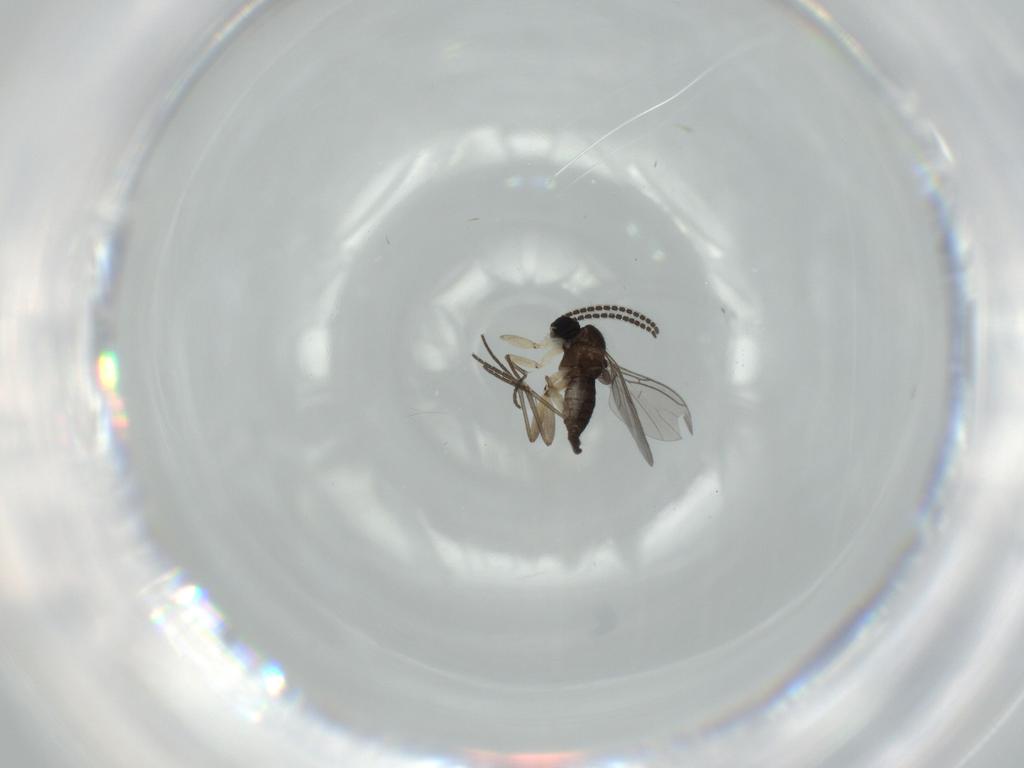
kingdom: Animalia
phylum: Arthropoda
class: Insecta
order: Diptera
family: Sciaridae
